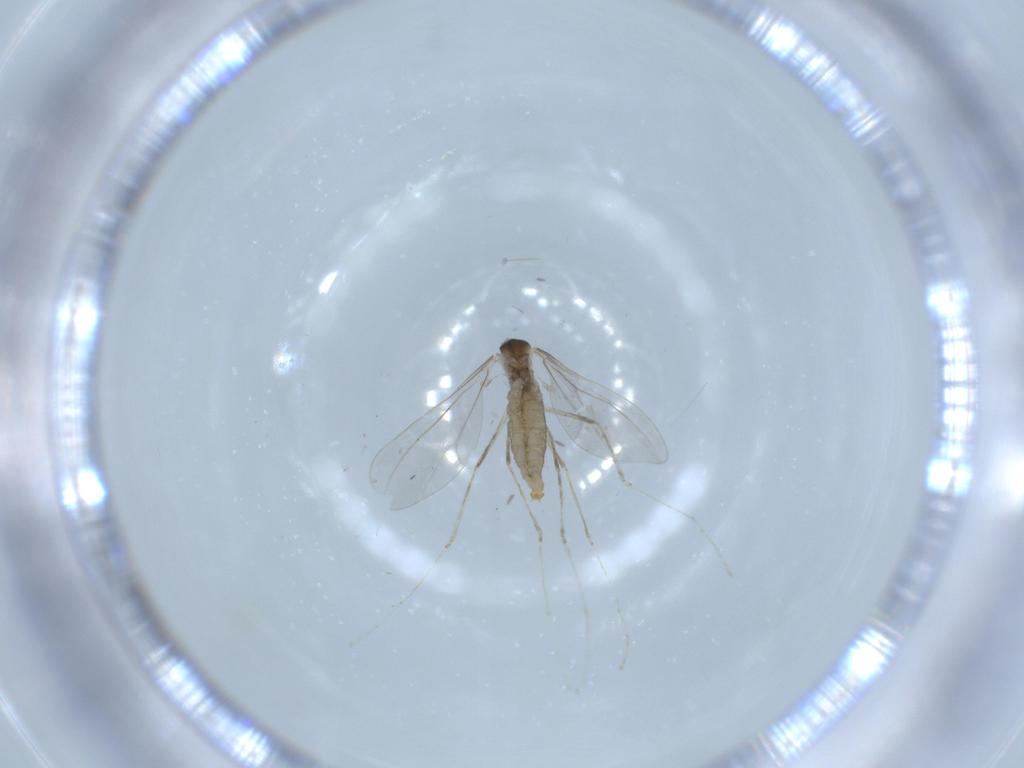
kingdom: Animalia
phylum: Arthropoda
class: Insecta
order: Diptera
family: Cecidomyiidae
